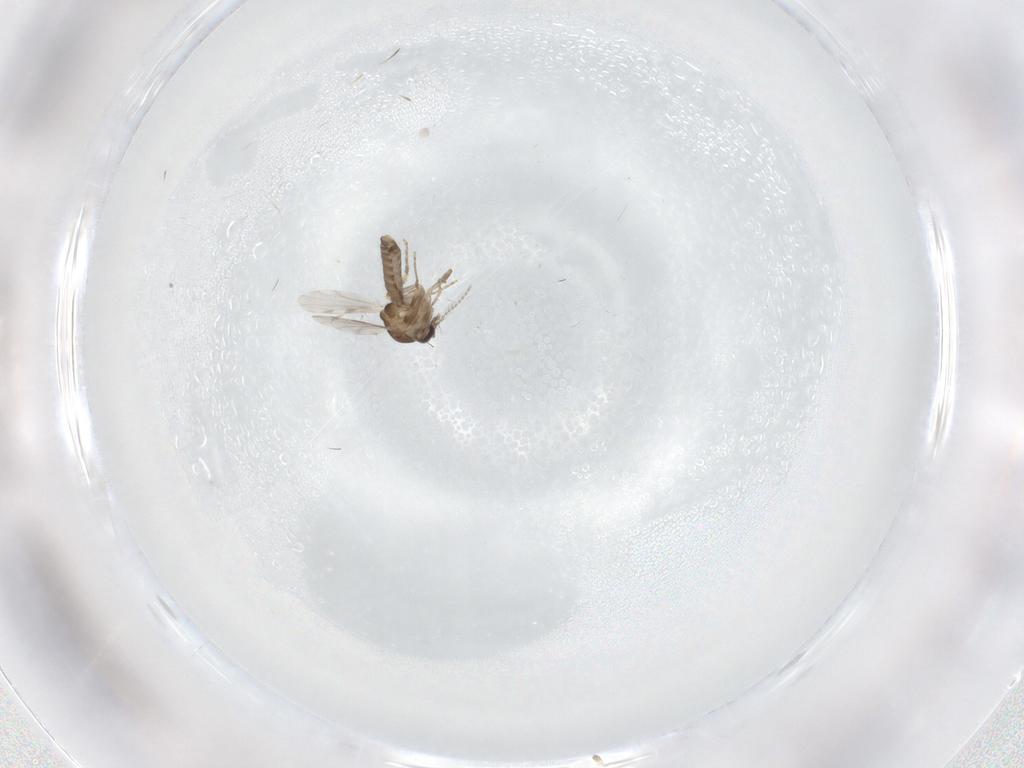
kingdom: Animalia
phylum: Arthropoda
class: Insecta
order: Diptera
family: Ceratopogonidae
